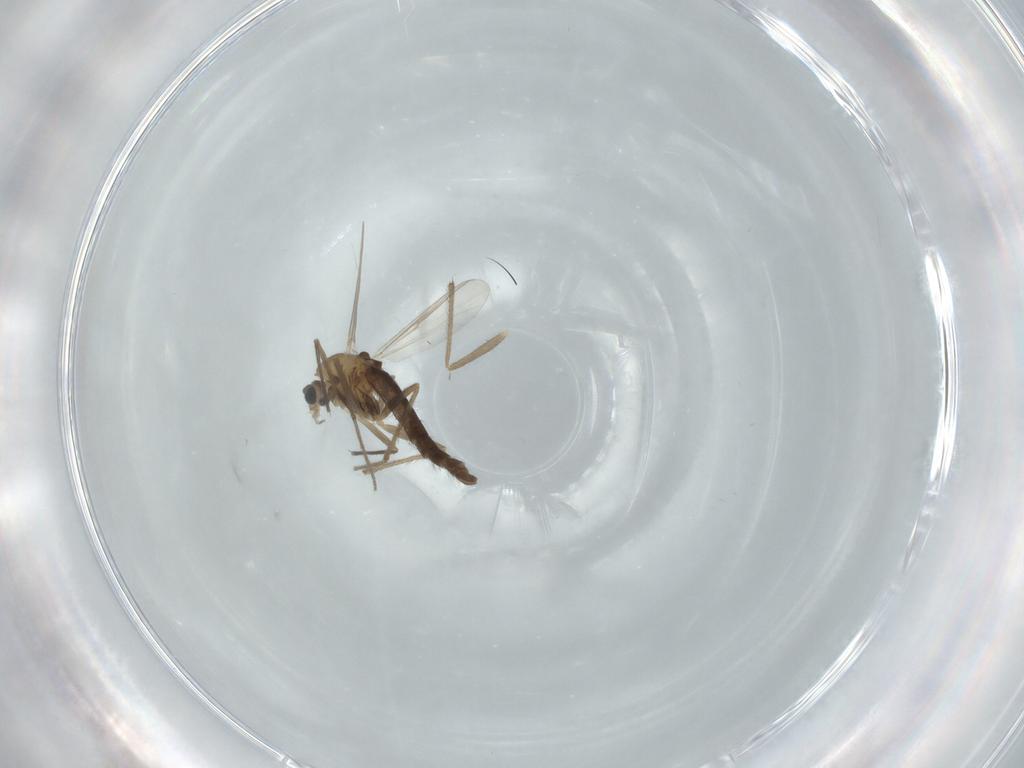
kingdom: Animalia
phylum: Arthropoda
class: Insecta
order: Diptera
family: Chironomidae
